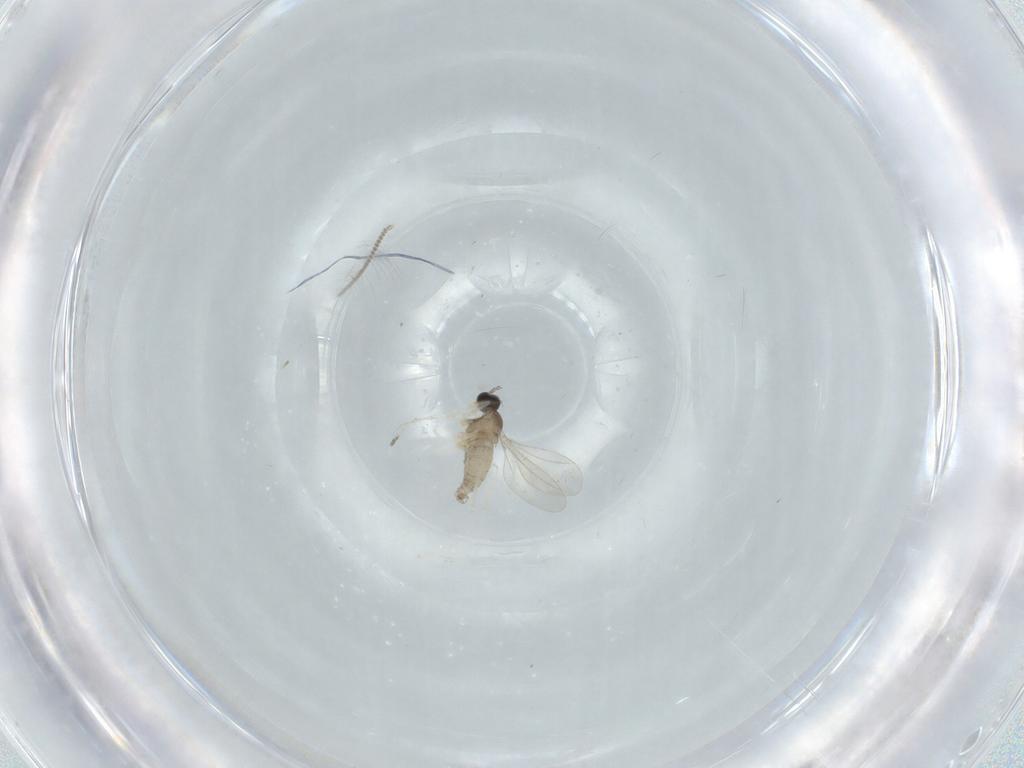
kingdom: Animalia
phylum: Arthropoda
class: Insecta
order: Diptera
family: Cecidomyiidae
